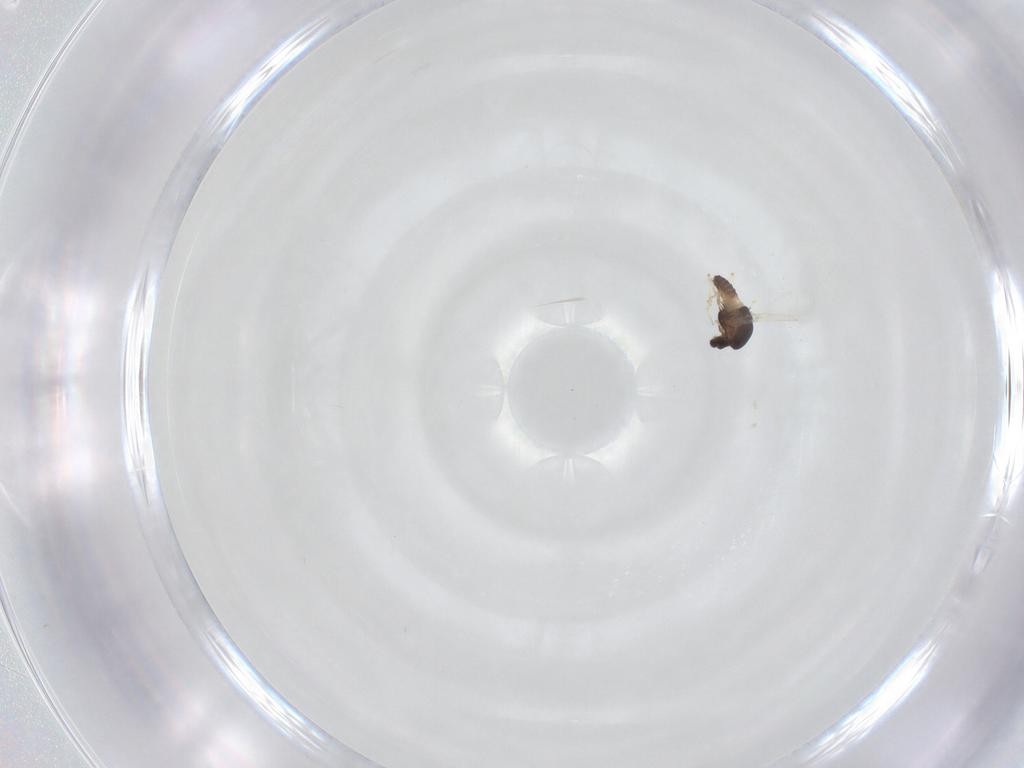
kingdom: Animalia
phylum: Arthropoda
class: Insecta
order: Diptera
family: Chironomidae
